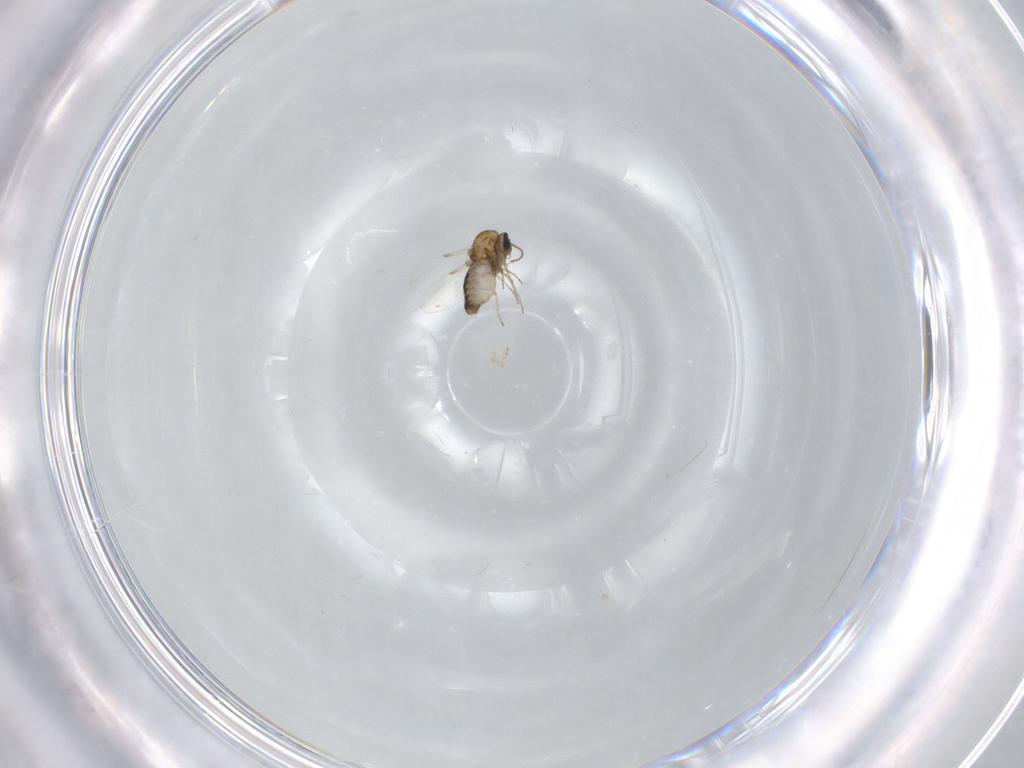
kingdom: Animalia
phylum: Arthropoda
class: Insecta
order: Diptera
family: Ceratopogonidae
